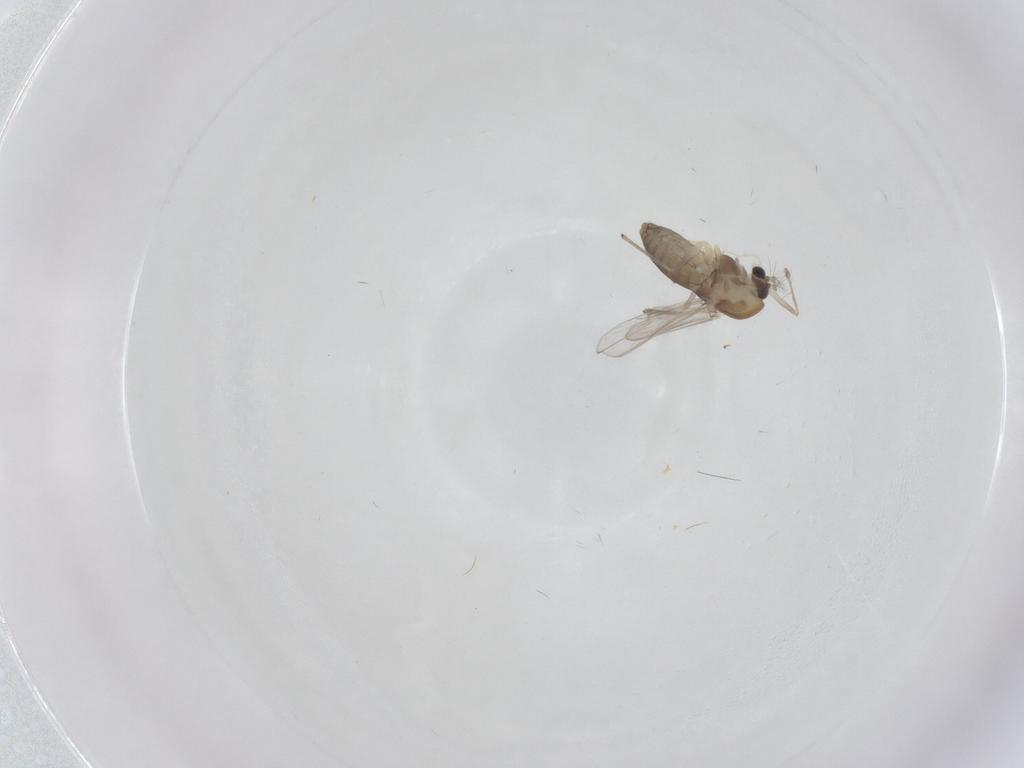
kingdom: Animalia
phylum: Arthropoda
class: Insecta
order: Diptera
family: Chironomidae
